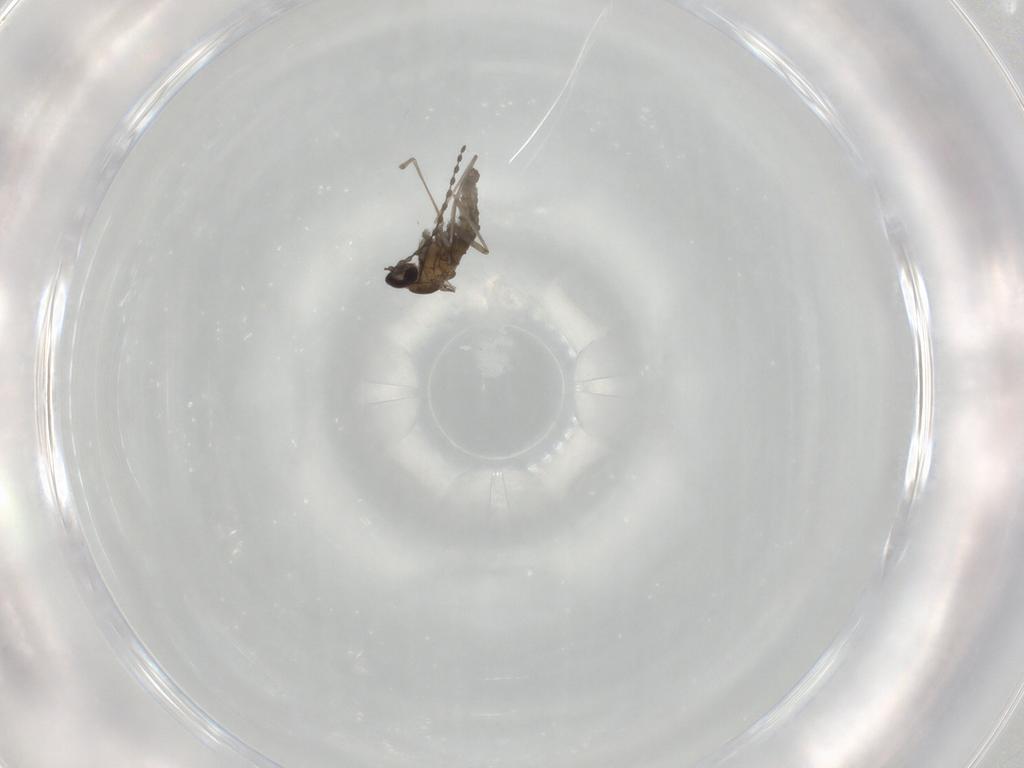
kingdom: Animalia
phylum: Arthropoda
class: Insecta
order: Diptera
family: Cecidomyiidae
